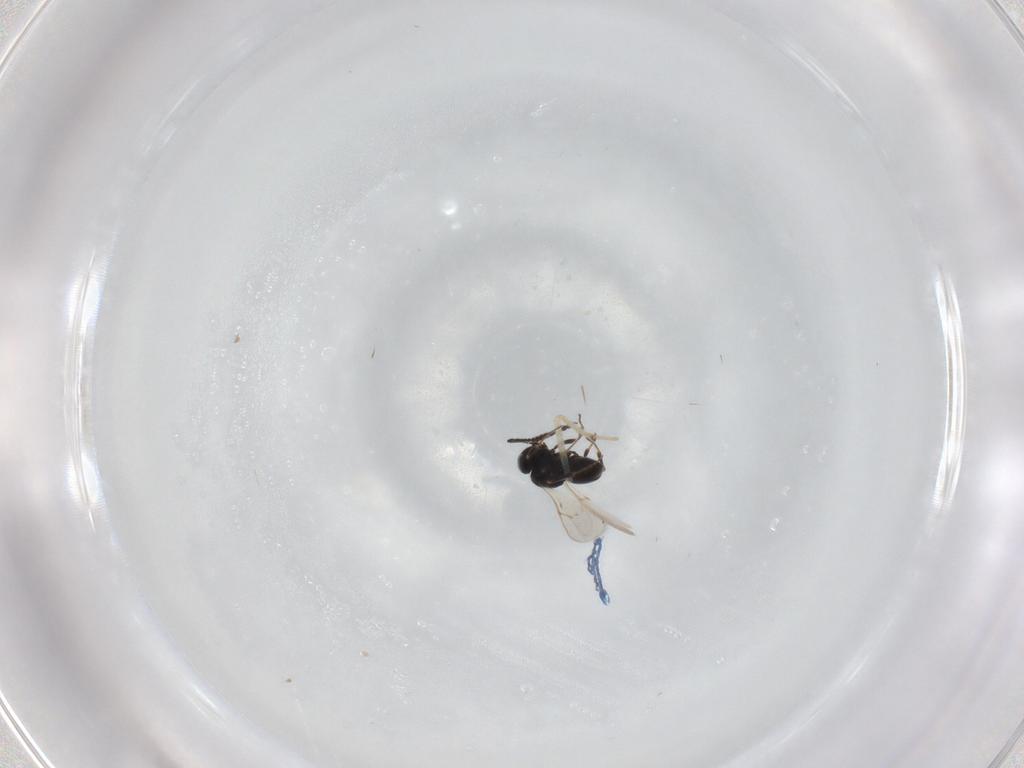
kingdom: Animalia
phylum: Arthropoda
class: Insecta
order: Hymenoptera
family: Scelionidae
